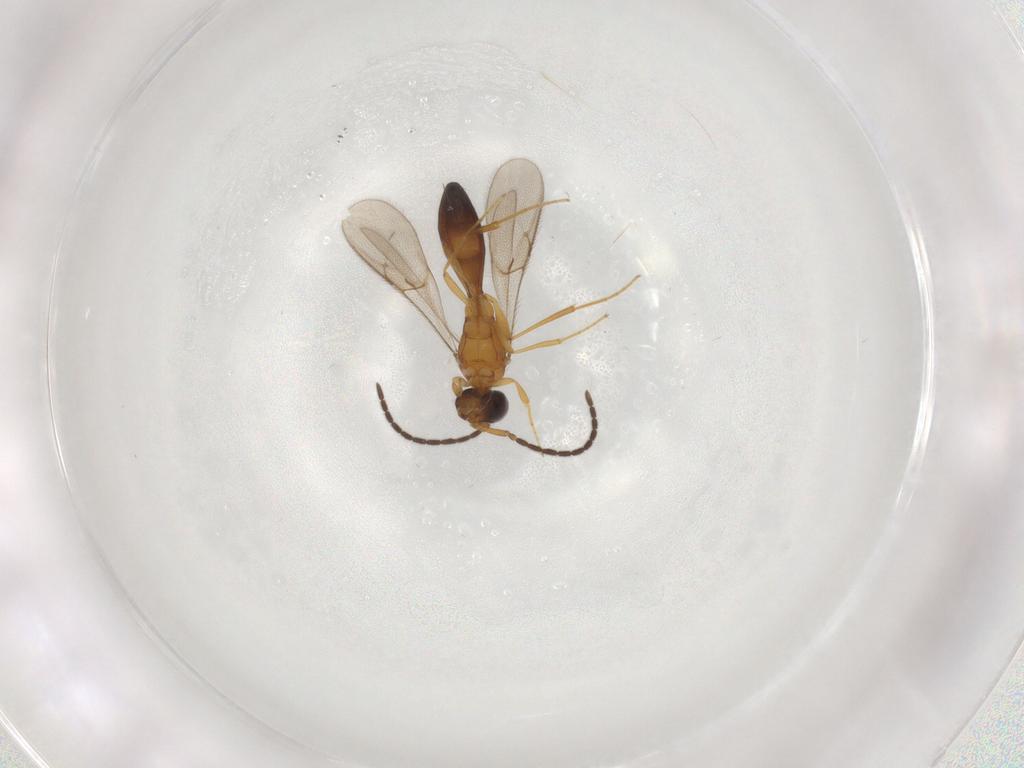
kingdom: Animalia
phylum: Arthropoda
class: Insecta
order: Hymenoptera
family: Scelionidae
